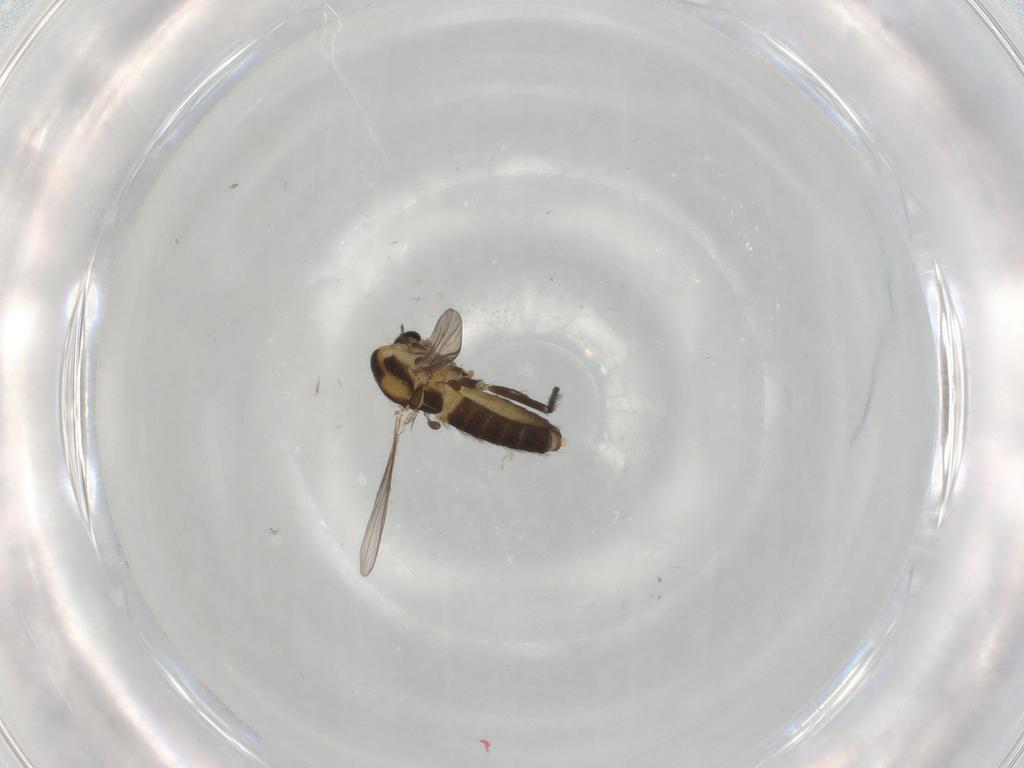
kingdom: Animalia
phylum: Arthropoda
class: Insecta
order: Diptera
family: Chironomidae
